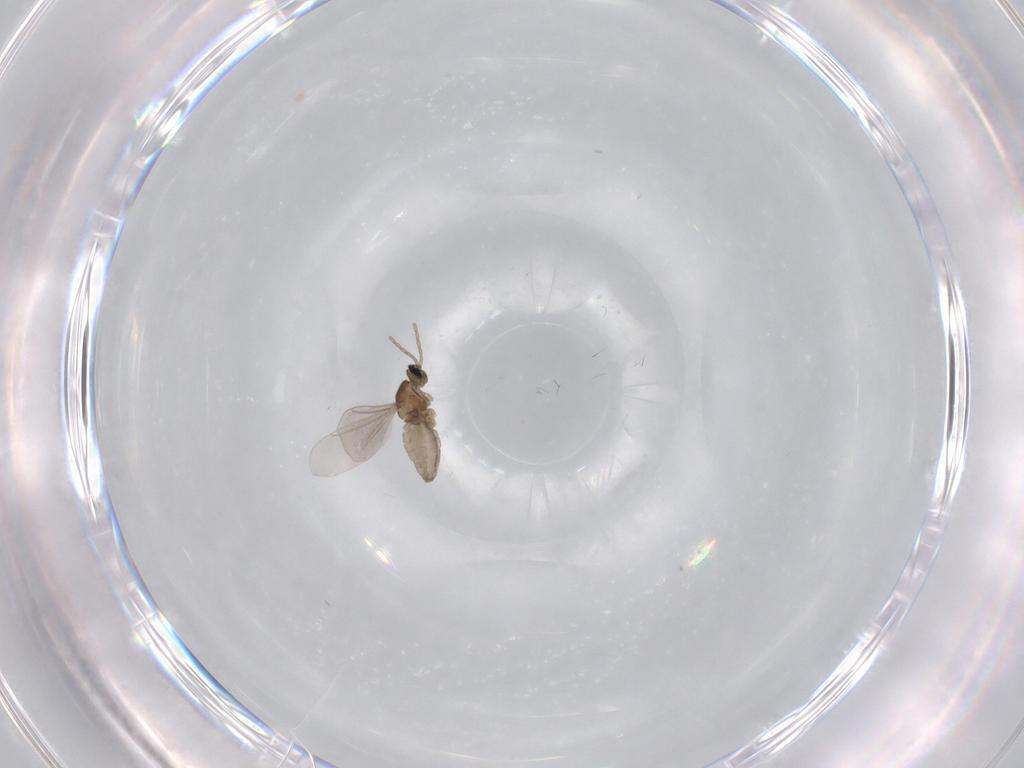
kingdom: Animalia
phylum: Arthropoda
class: Insecta
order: Diptera
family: Cecidomyiidae
